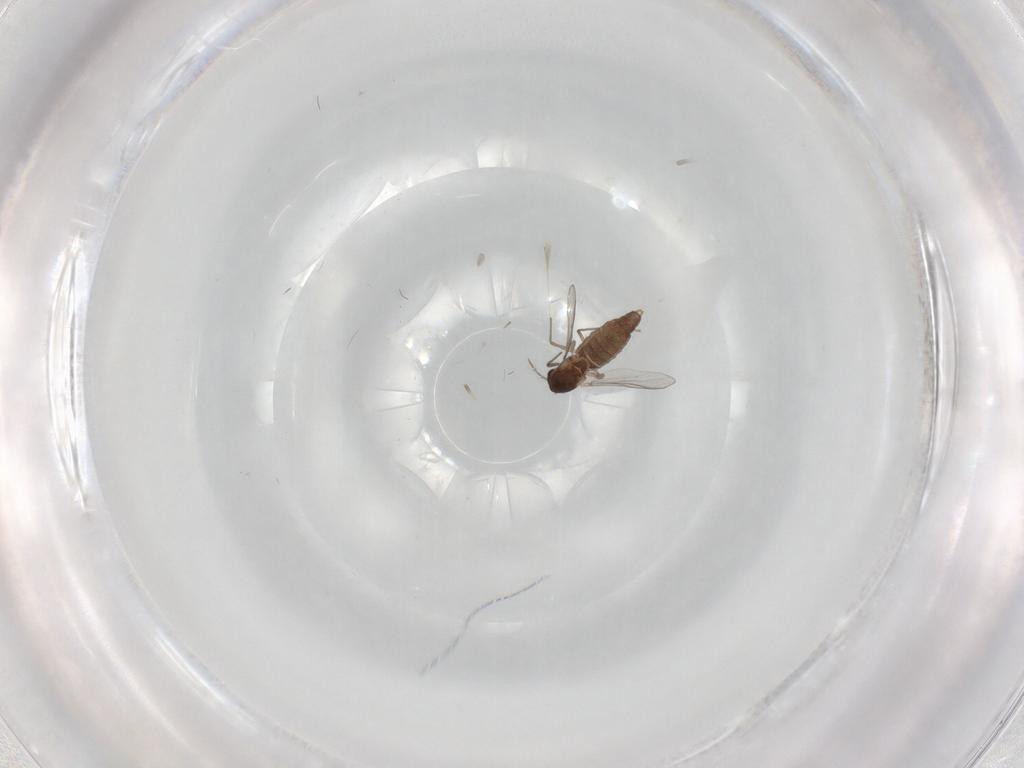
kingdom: Animalia
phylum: Arthropoda
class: Insecta
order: Diptera
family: Chironomidae
